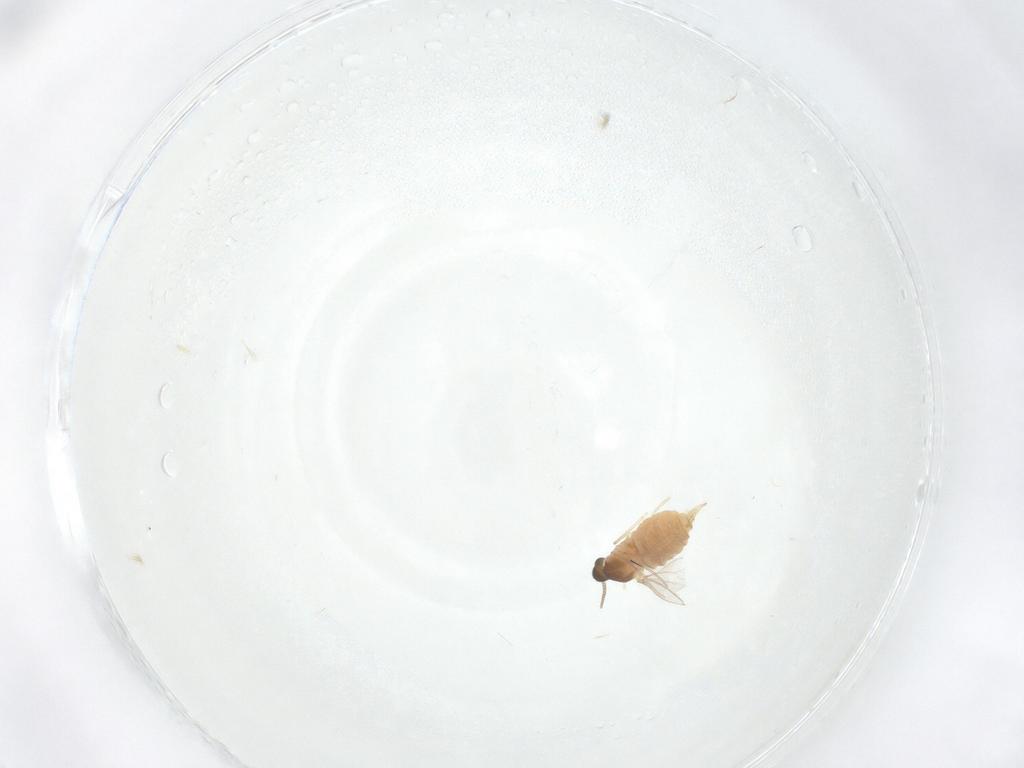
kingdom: Animalia
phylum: Arthropoda
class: Insecta
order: Diptera
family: Cecidomyiidae
